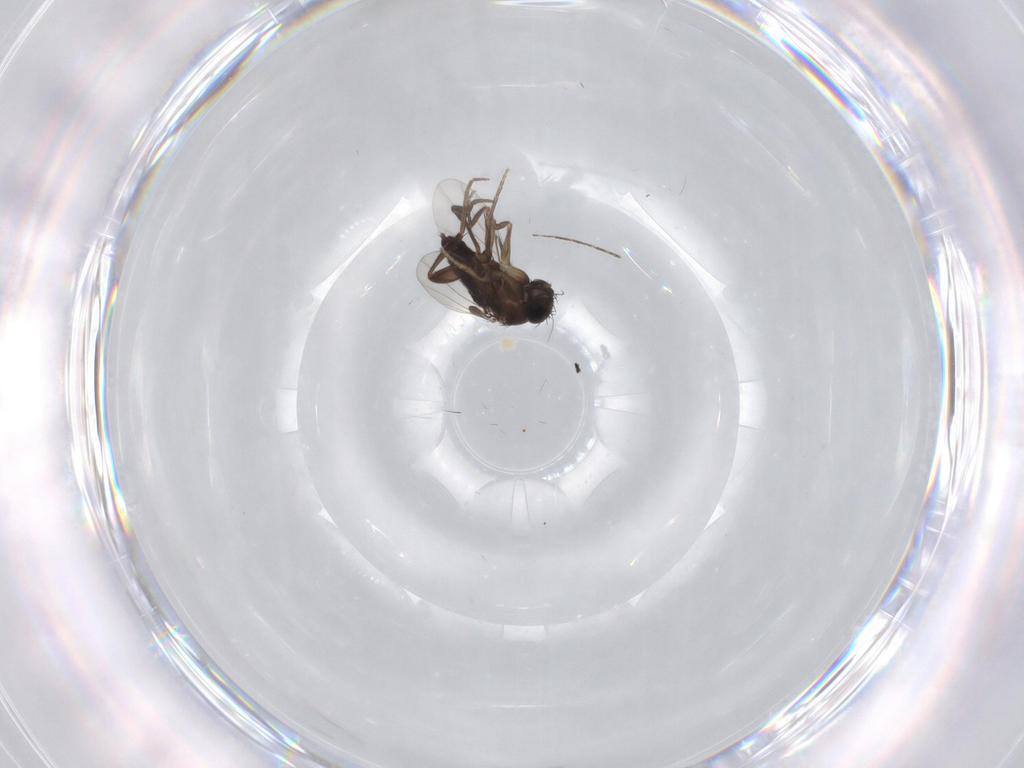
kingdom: Animalia
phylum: Arthropoda
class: Insecta
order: Diptera
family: Phoridae
